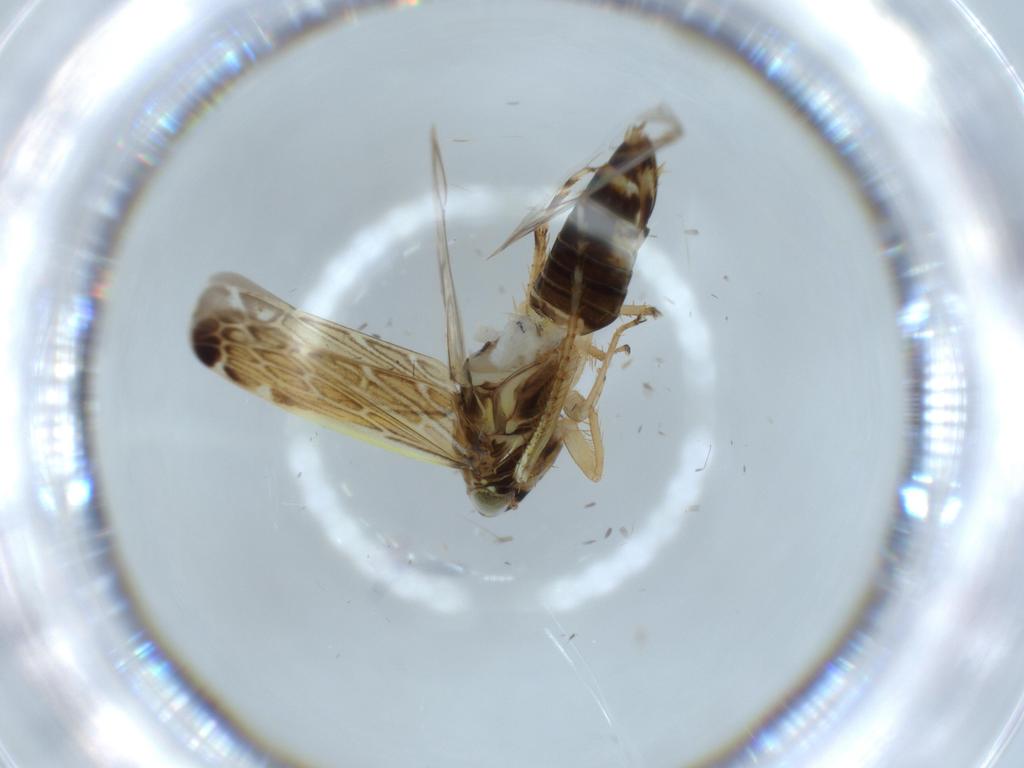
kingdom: Animalia
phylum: Arthropoda
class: Insecta
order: Hemiptera
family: Cicadellidae
